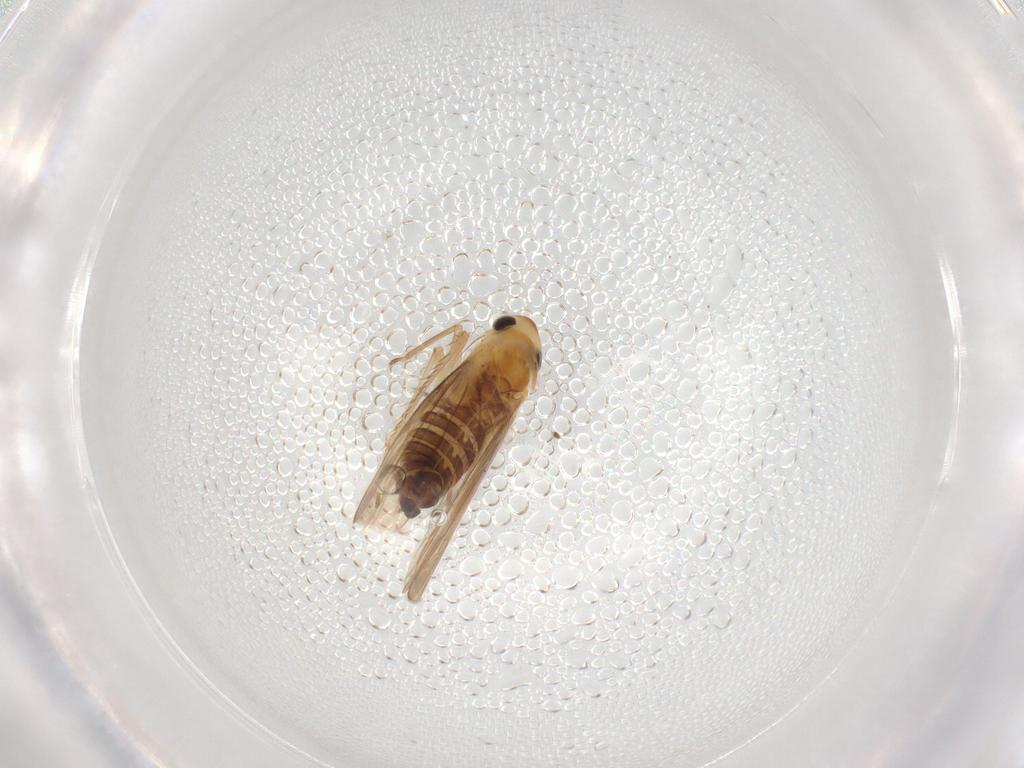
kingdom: Animalia
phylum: Arthropoda
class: Insecta
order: Hemiptera
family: Cicadellidae
